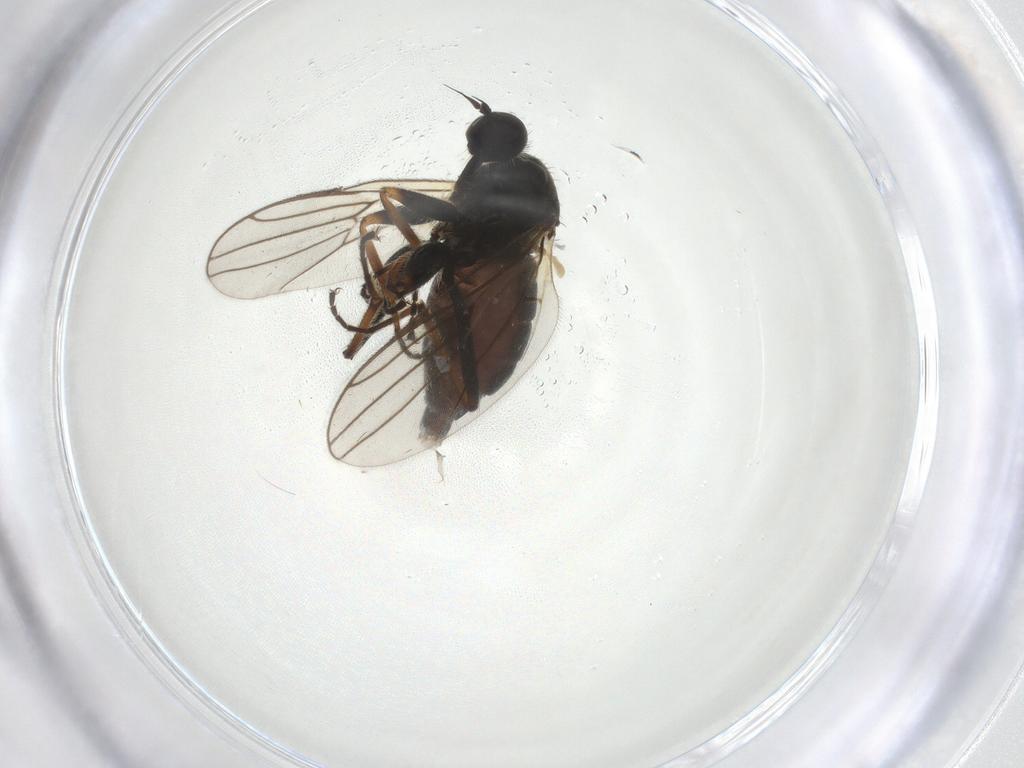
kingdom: Animalia
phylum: Arthropoda
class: Insecta
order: Diptera
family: Hybotidae
